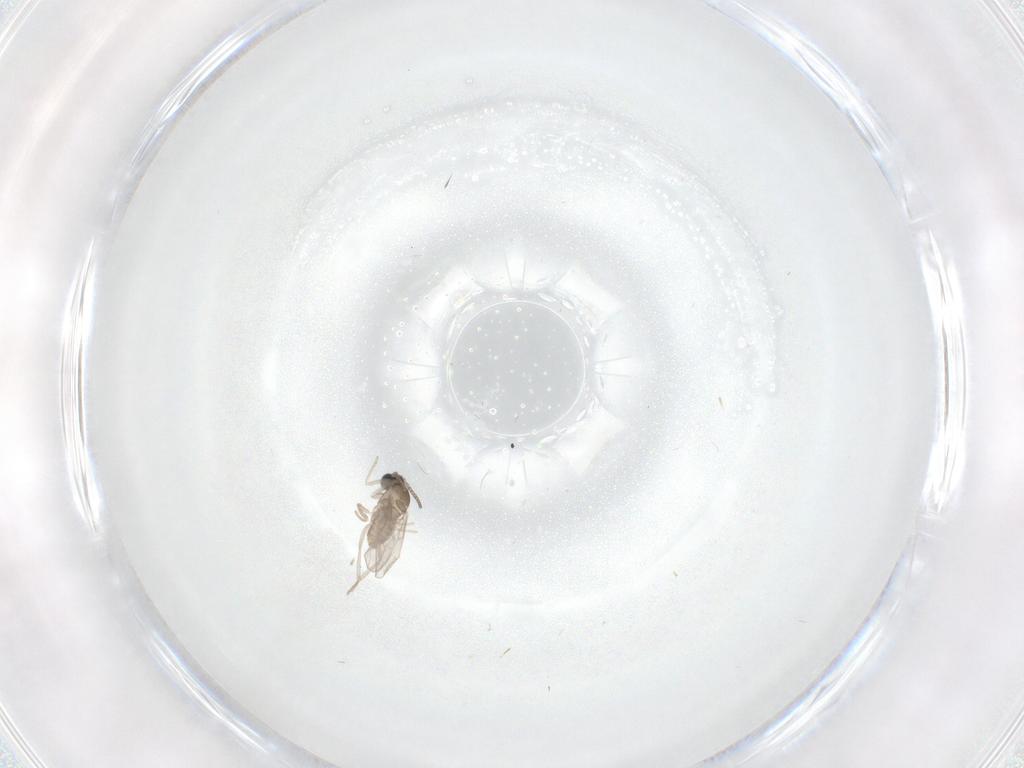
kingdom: Animalia
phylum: Arthropoda
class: Insecta
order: Diptera
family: Cecidomyiidae
